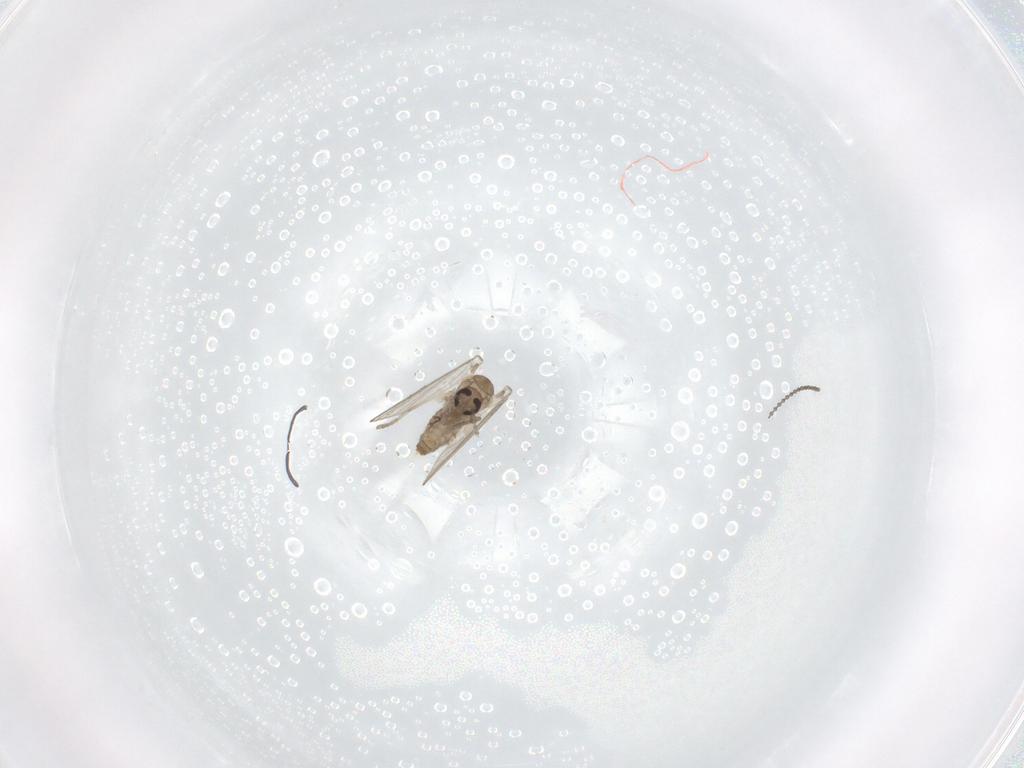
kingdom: Animalia
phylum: Arthropoda
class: Insecta
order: Diptera
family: Psychodidae
